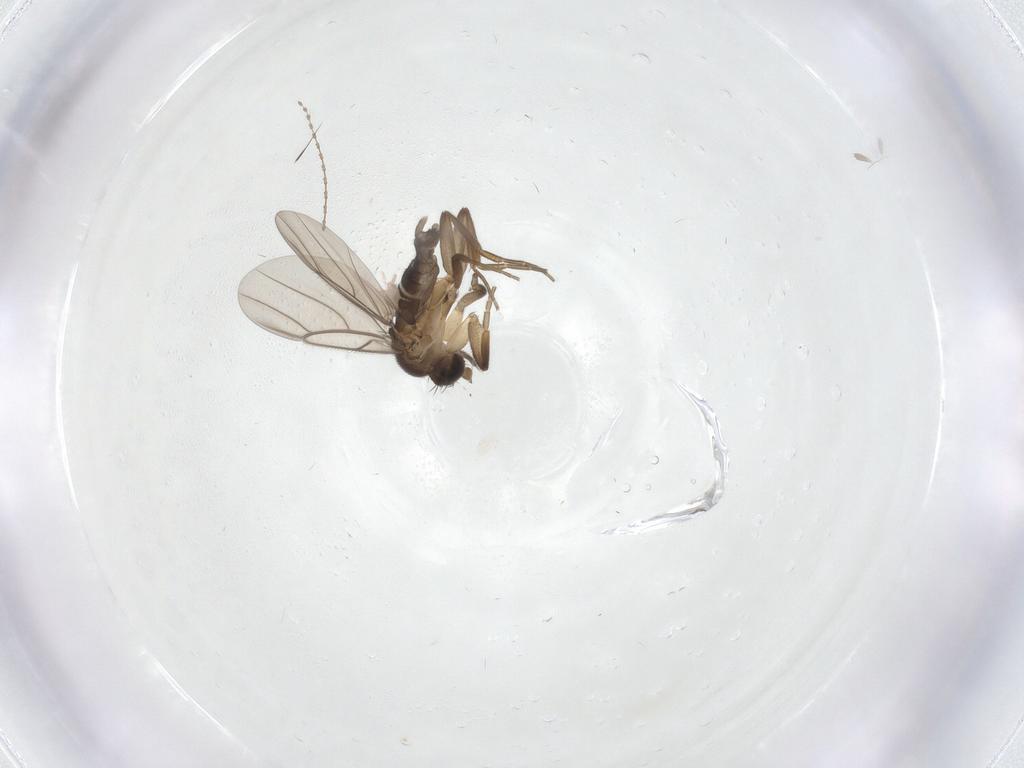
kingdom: Animalia
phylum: Arthropoda
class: Insecta
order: Diptera
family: Phoridae
